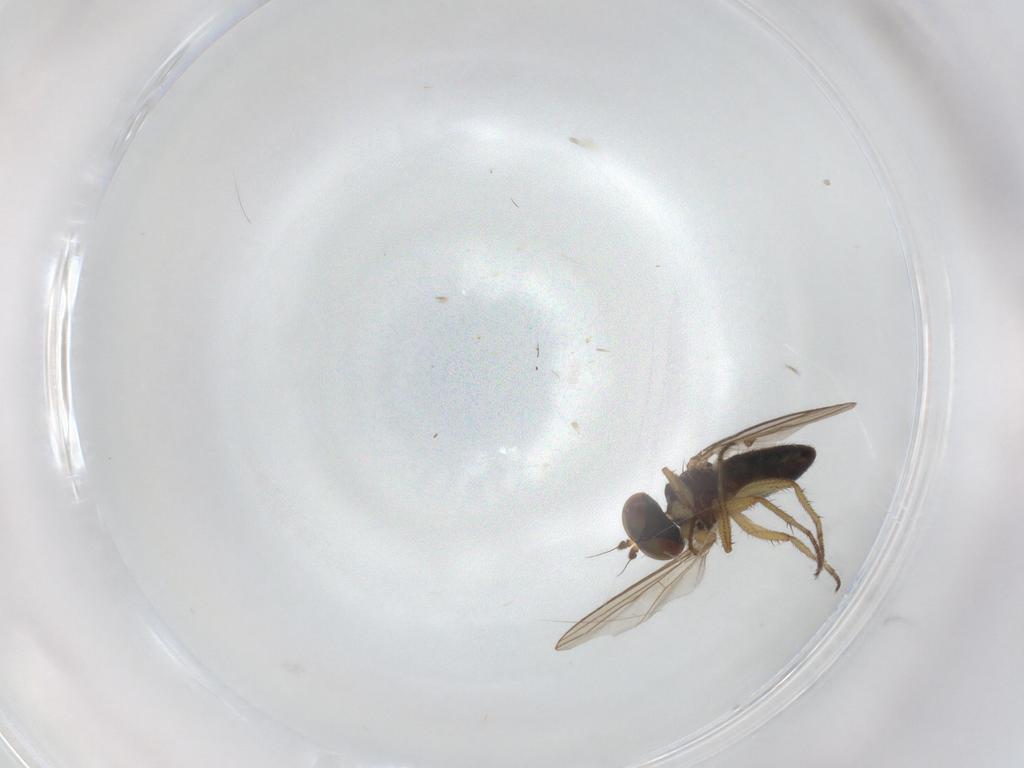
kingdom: Animalia
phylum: Arthropoda
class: Insecta
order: Diptera
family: Dolichopodidae
